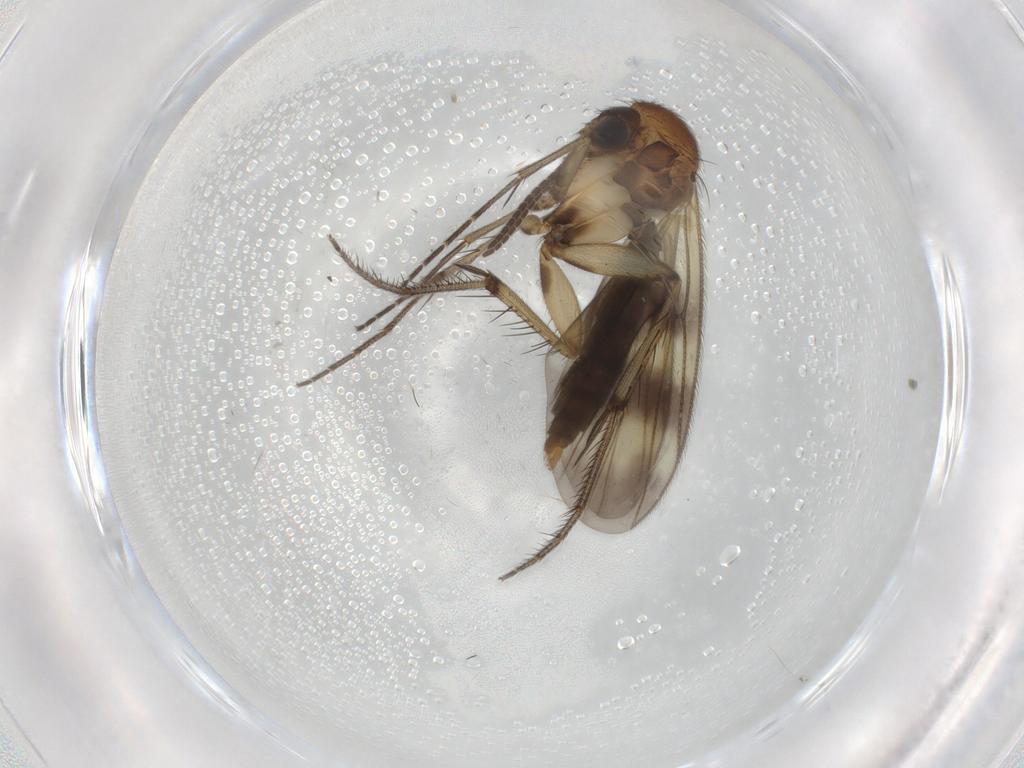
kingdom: Animalia
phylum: Arthropoda
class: Insecta
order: Diptera
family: Chironomidae
